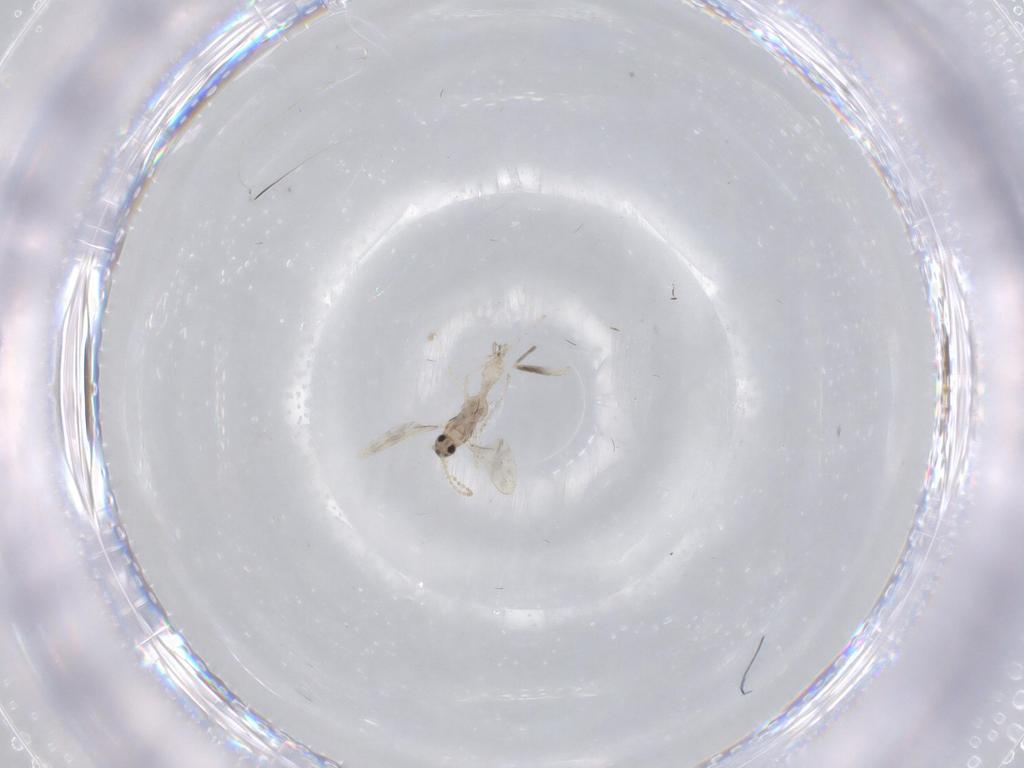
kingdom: Animalia
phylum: Arthropoda
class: Insecta
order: Diptera
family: Cecidomyiidae
